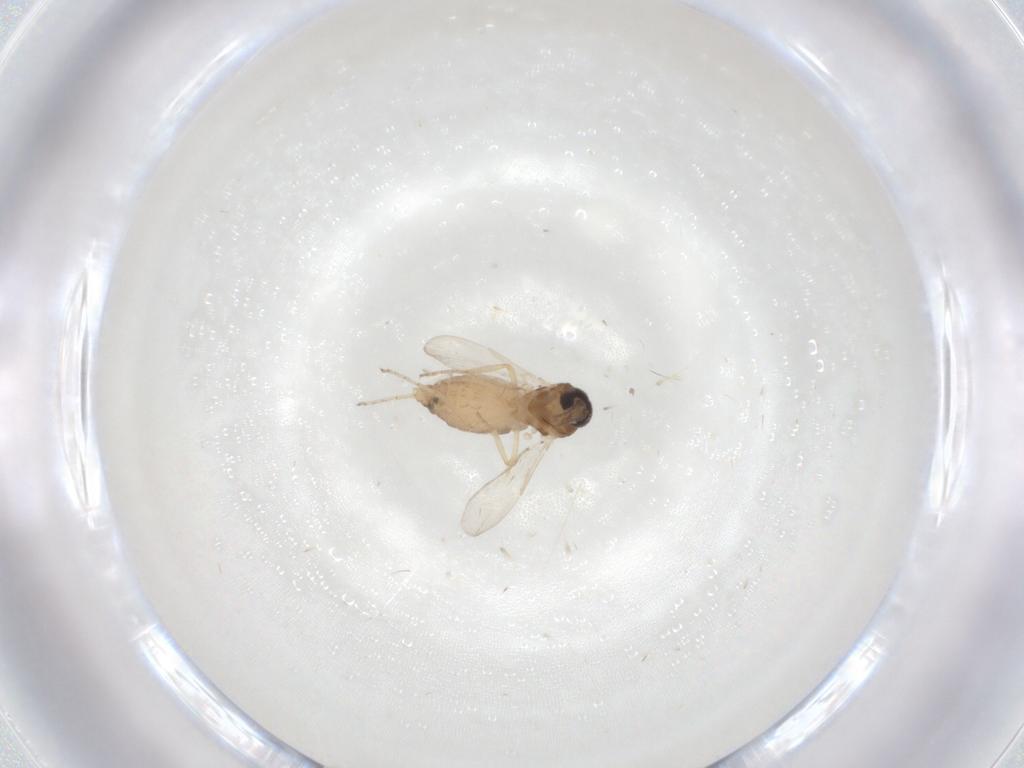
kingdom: Animalia
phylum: Arthropoda
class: Insecta
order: Diptera
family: Ceratopogonidae
